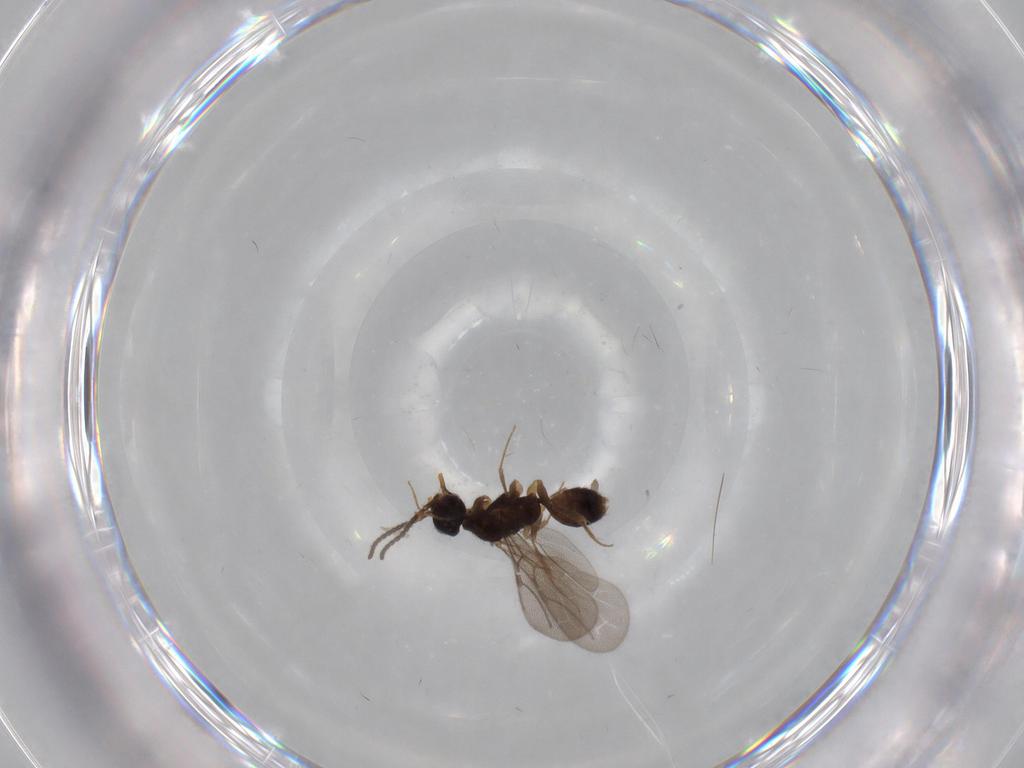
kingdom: Animalia
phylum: Arthropoda
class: Insecta
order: Hymenoptera
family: Bethylidae
